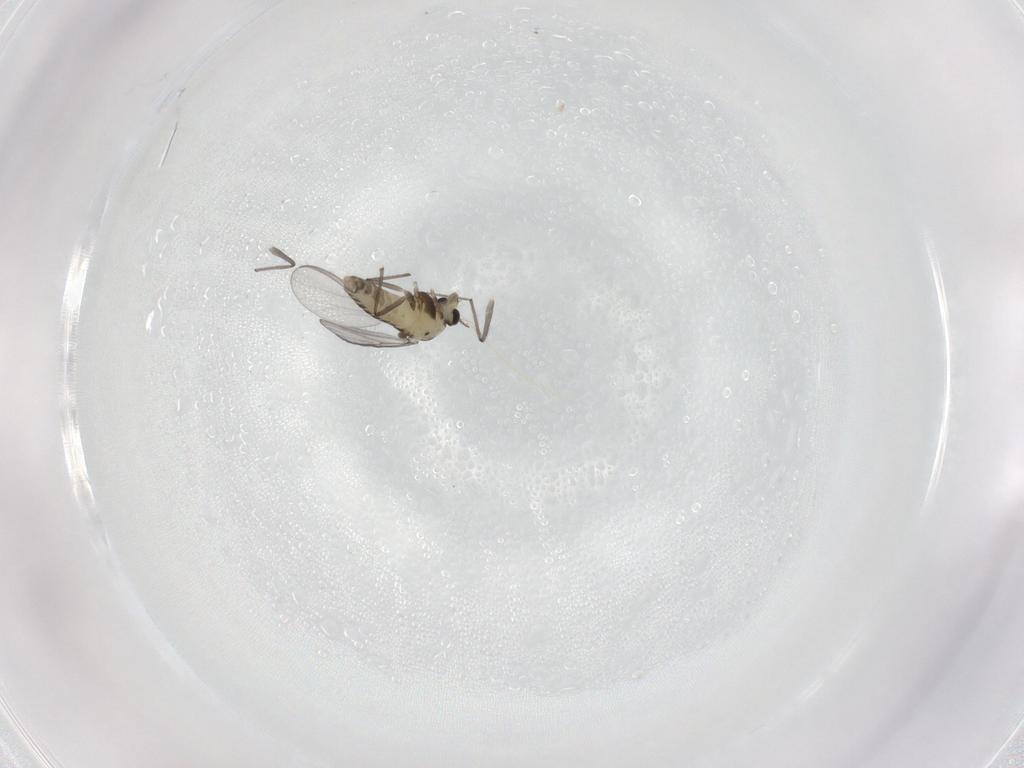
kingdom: Animalia
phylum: Arthropoda
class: Insecta
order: Diptera
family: Chironomidae
